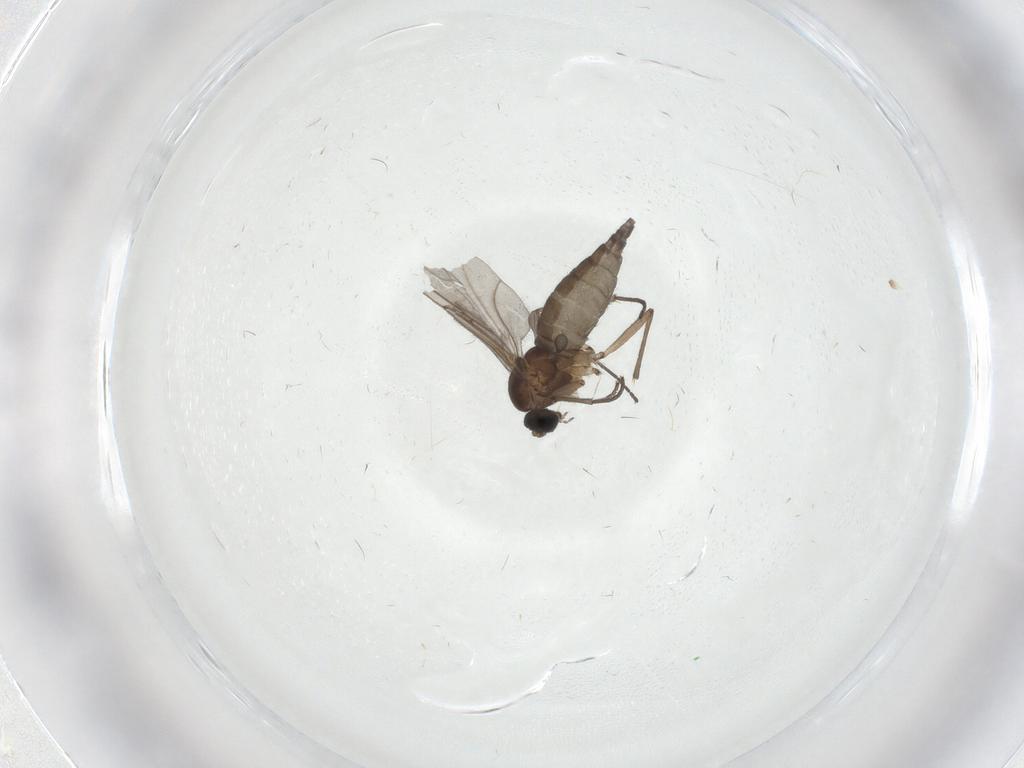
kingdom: Animalia
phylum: Arthropoda
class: Insecta
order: Diptera
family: Sciaridae
